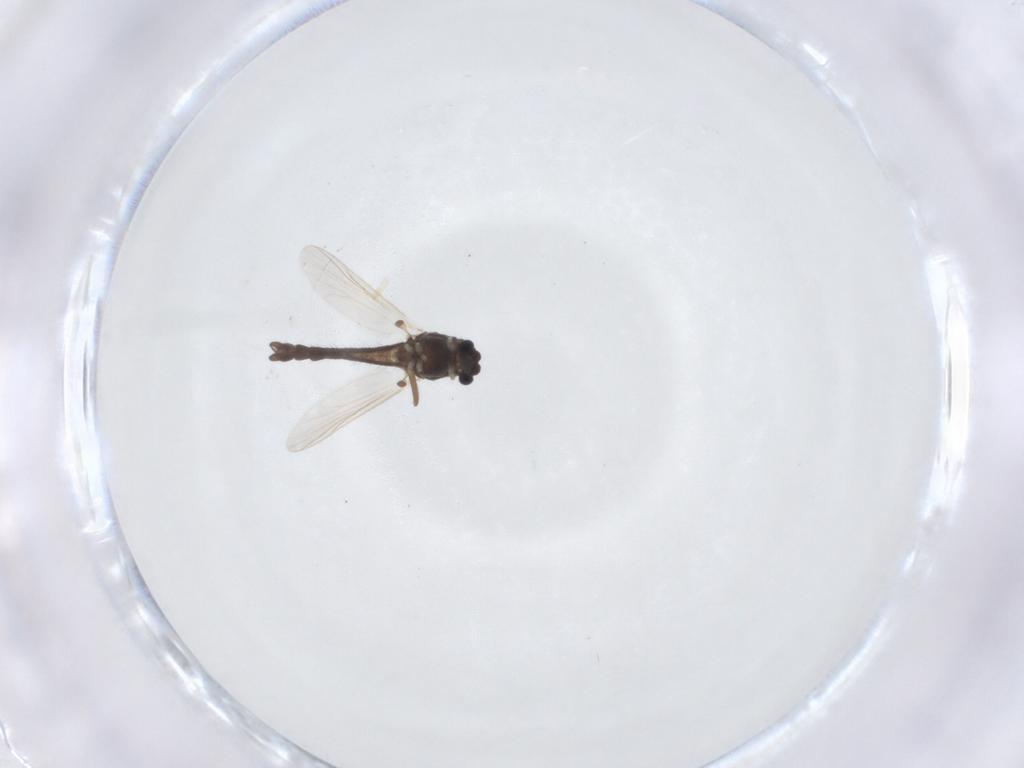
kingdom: Animalia
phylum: Arthropoda
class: Insecta
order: Diptera
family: Chironomidae
